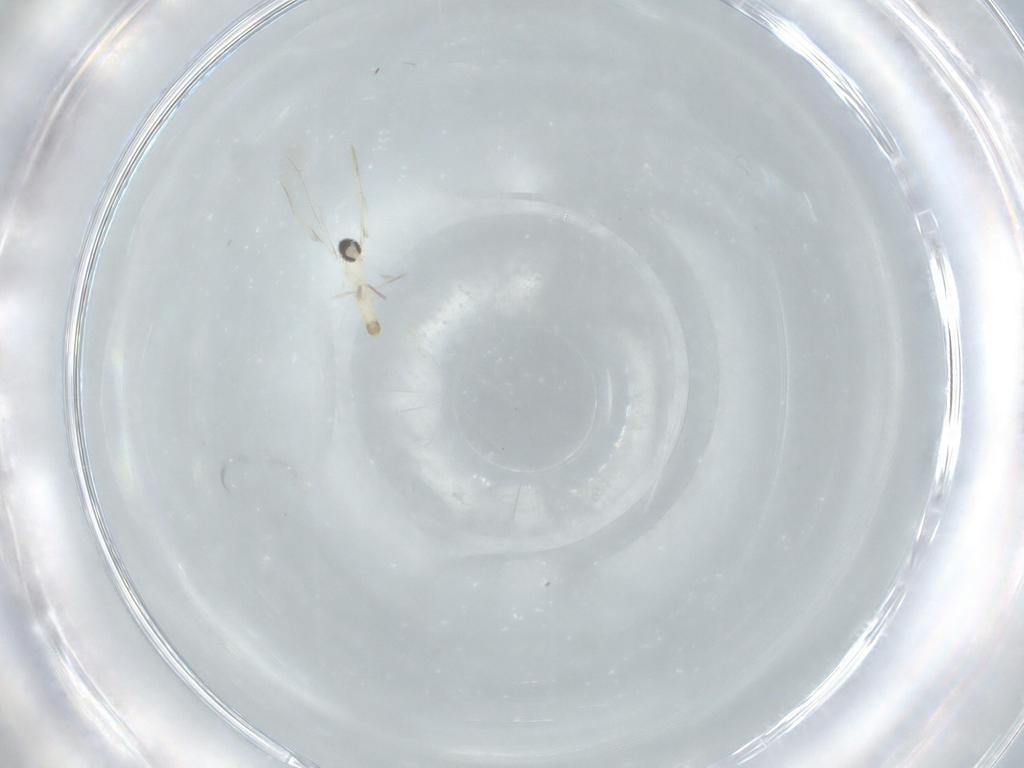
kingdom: Animalia
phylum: Arthropoda
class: Insecta
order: Diptera
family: Cecidomyiidae
